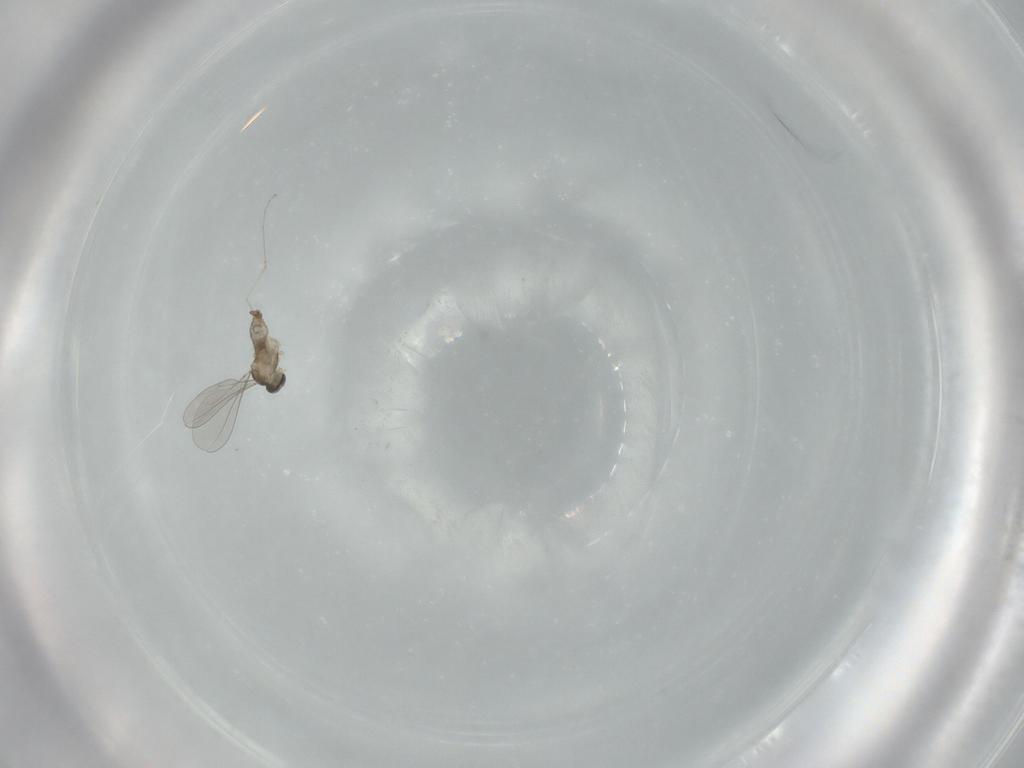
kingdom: Animalia
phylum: Arthropoda
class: Insecta
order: Diptera
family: Cecidomyiidae
